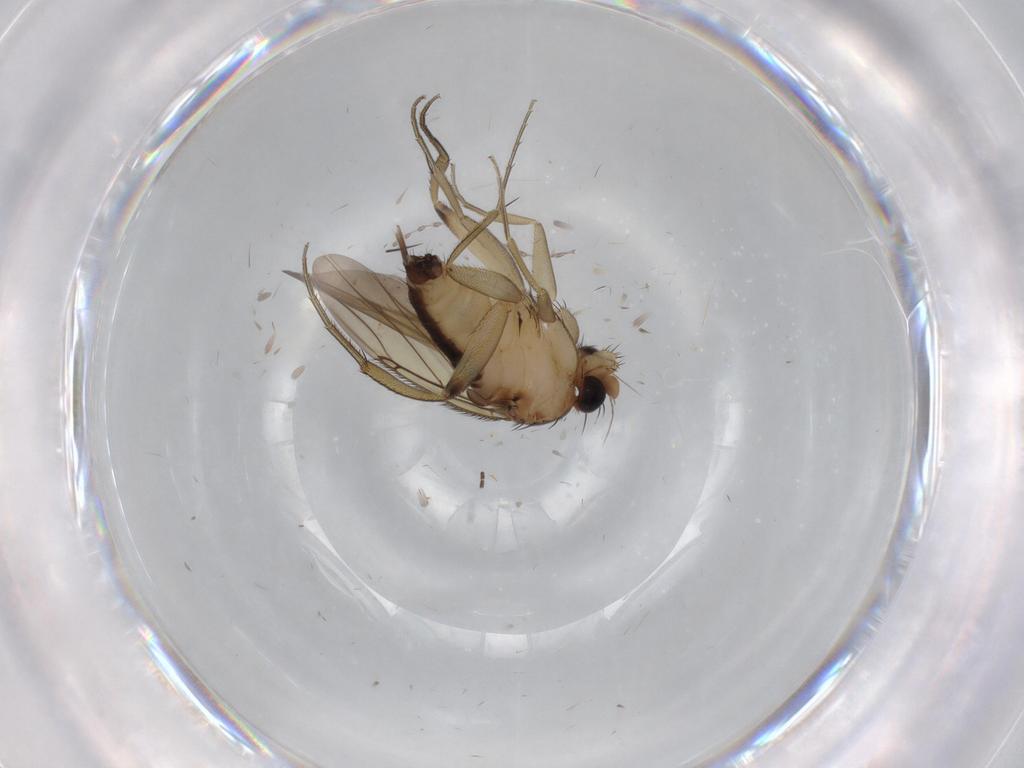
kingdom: Animalia
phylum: Arthropoda
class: Insecta
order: Diptera
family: Phoridae
